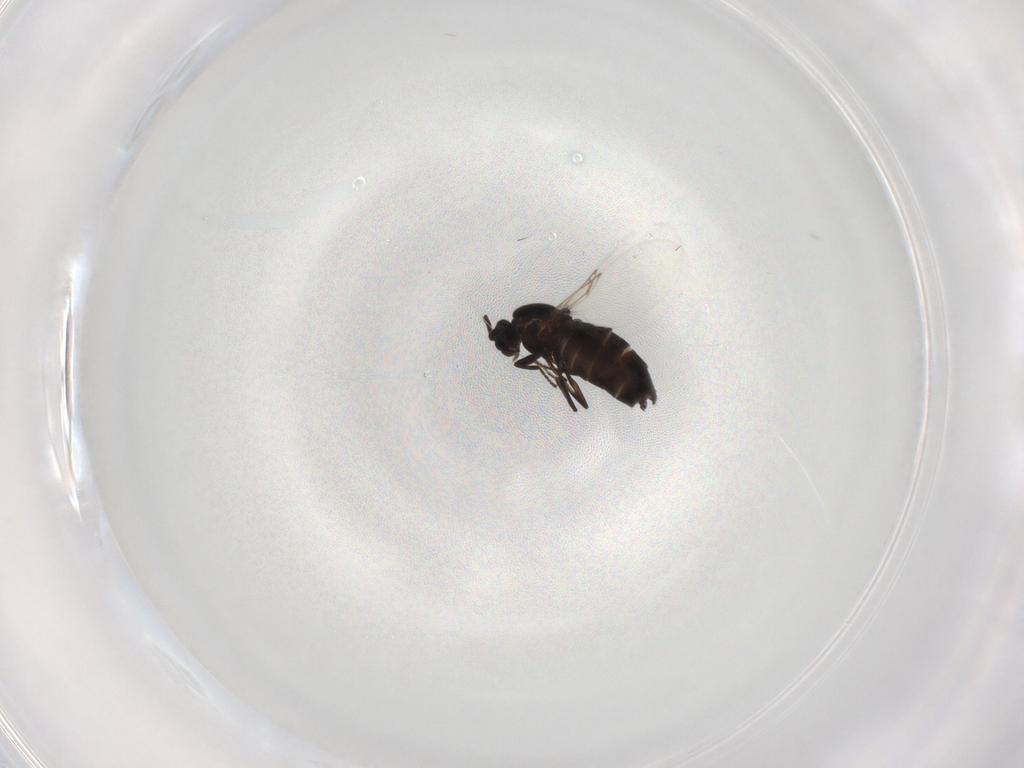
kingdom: Animalia
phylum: Arthropoda
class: Insecta
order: Diptera
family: Scatopsidae
